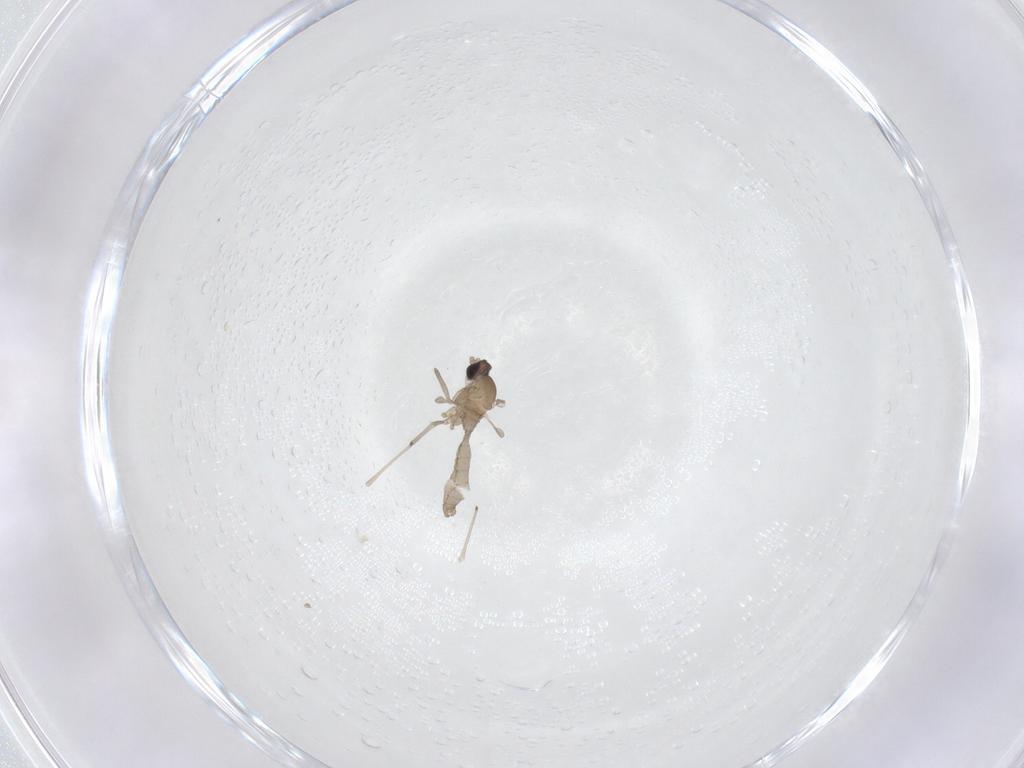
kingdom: Animalia
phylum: Arthropoda
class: Insecta
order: Diptera
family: Cecidomyiidae
